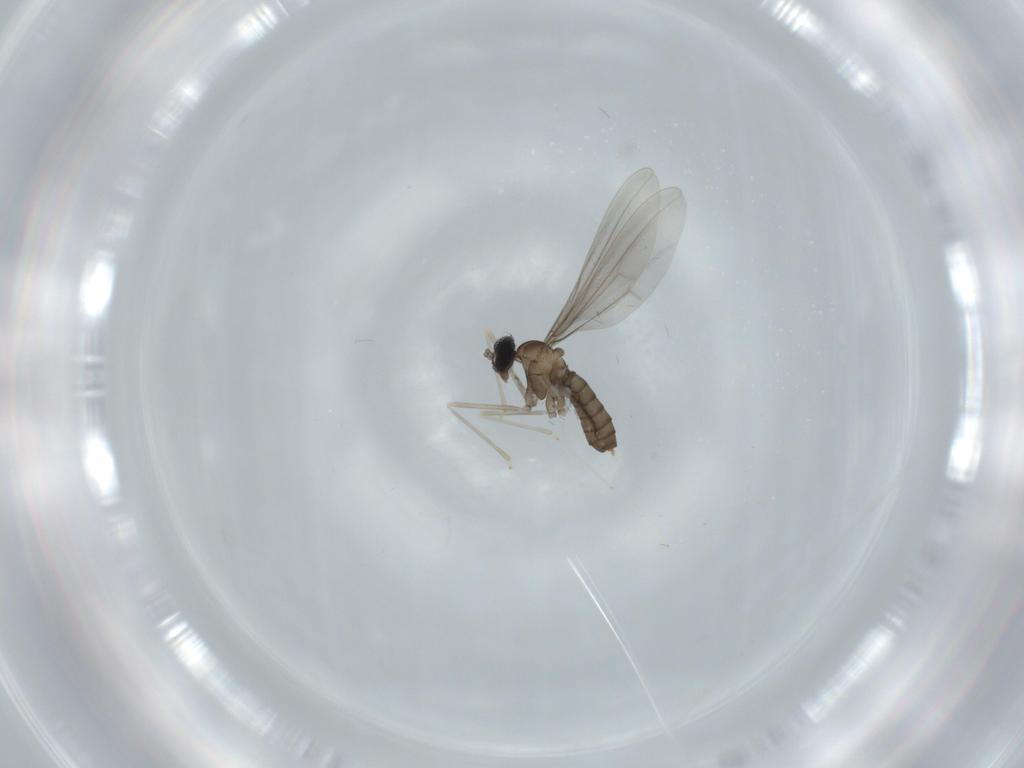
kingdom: Animalia
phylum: Arthropoda
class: Insecta
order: Diptera
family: Cecidomyiidae
